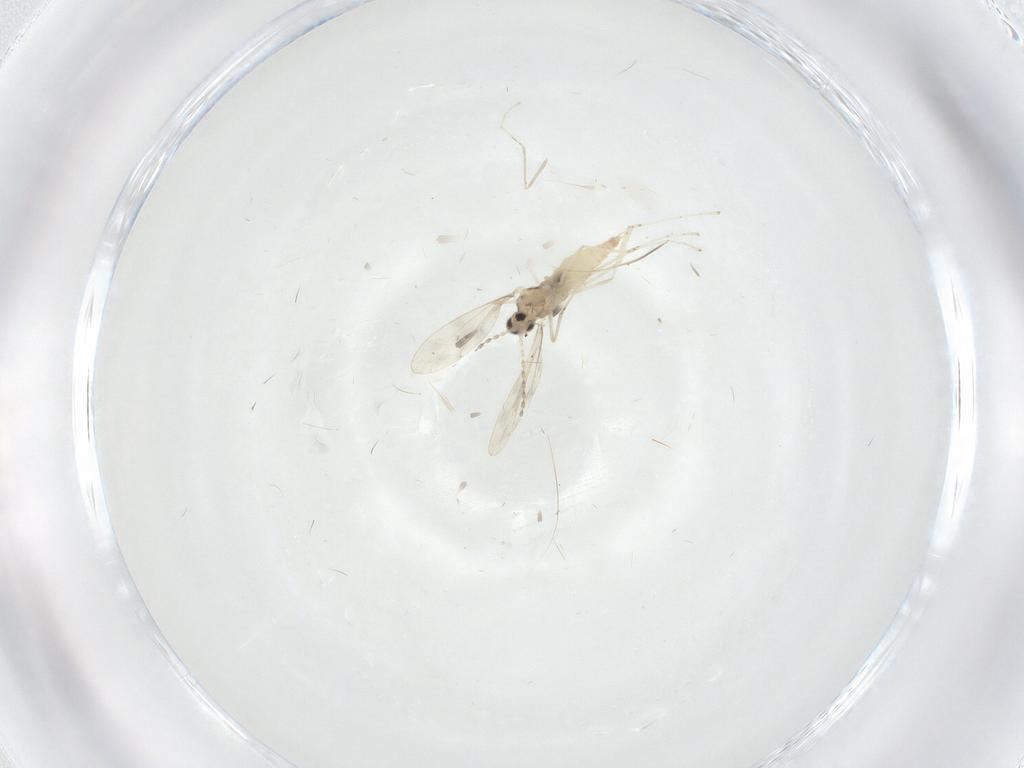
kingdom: Animalia
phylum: Arthropoda
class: Insecta
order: Diptera
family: Cecidomyiidae
